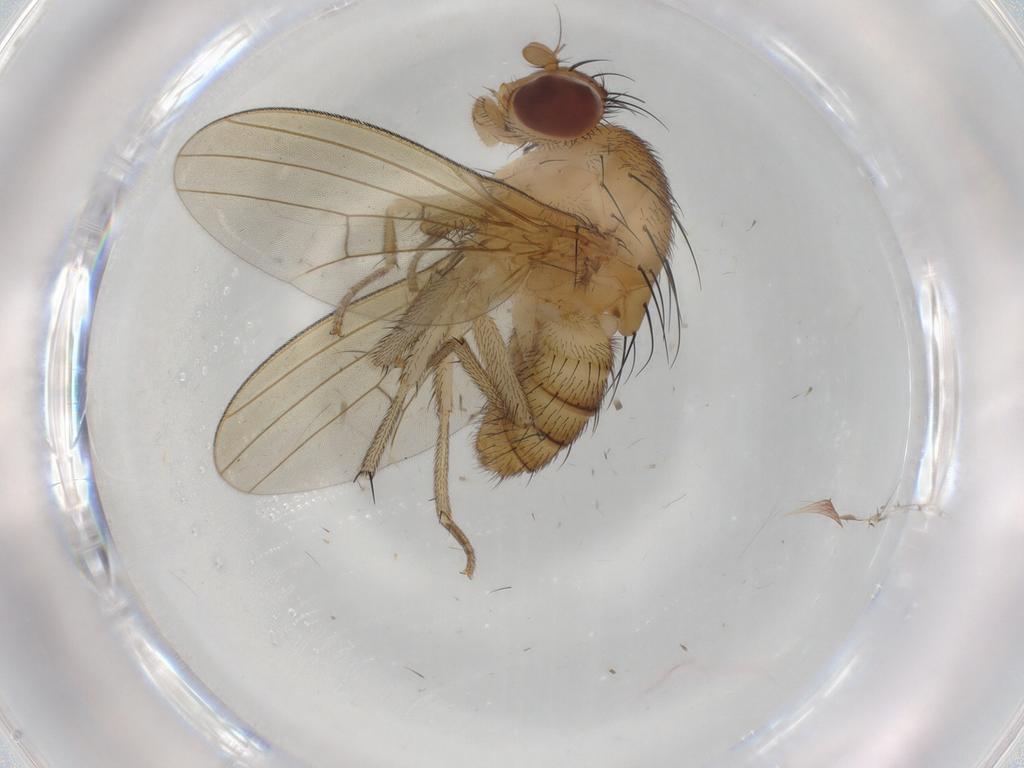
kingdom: Animalia
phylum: Arthropoda
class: Insecta
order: Diptera
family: Lauxaniidae
